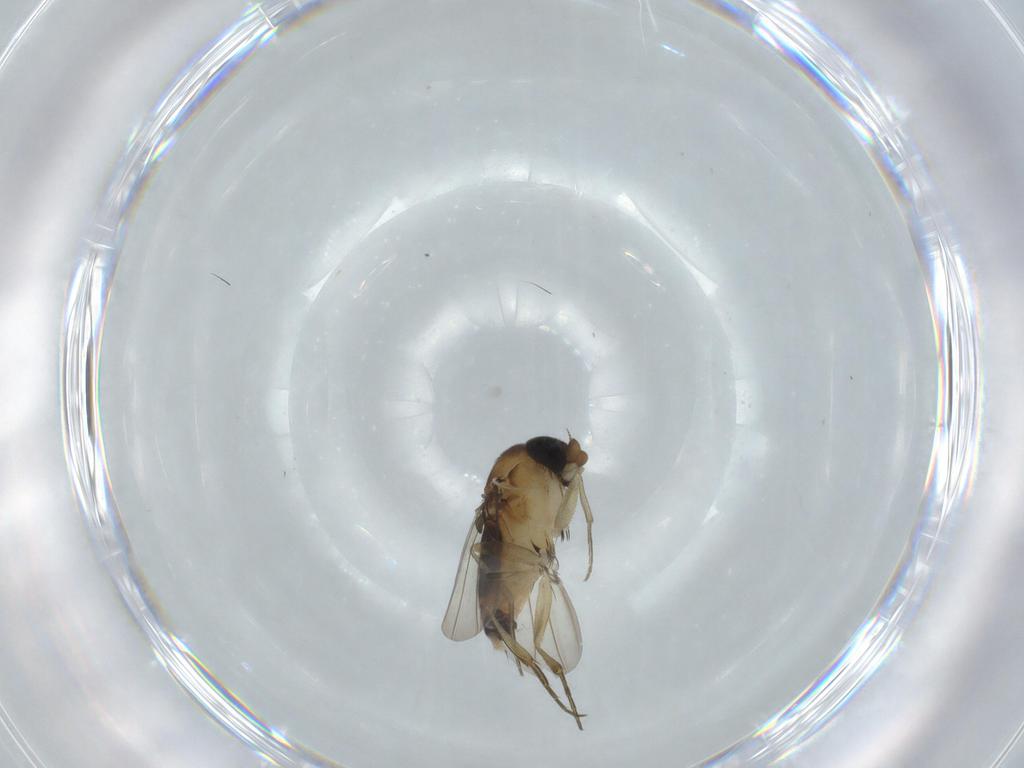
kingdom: Animalia
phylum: Arthropoda
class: Insecta
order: Diptera
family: Phoridae
